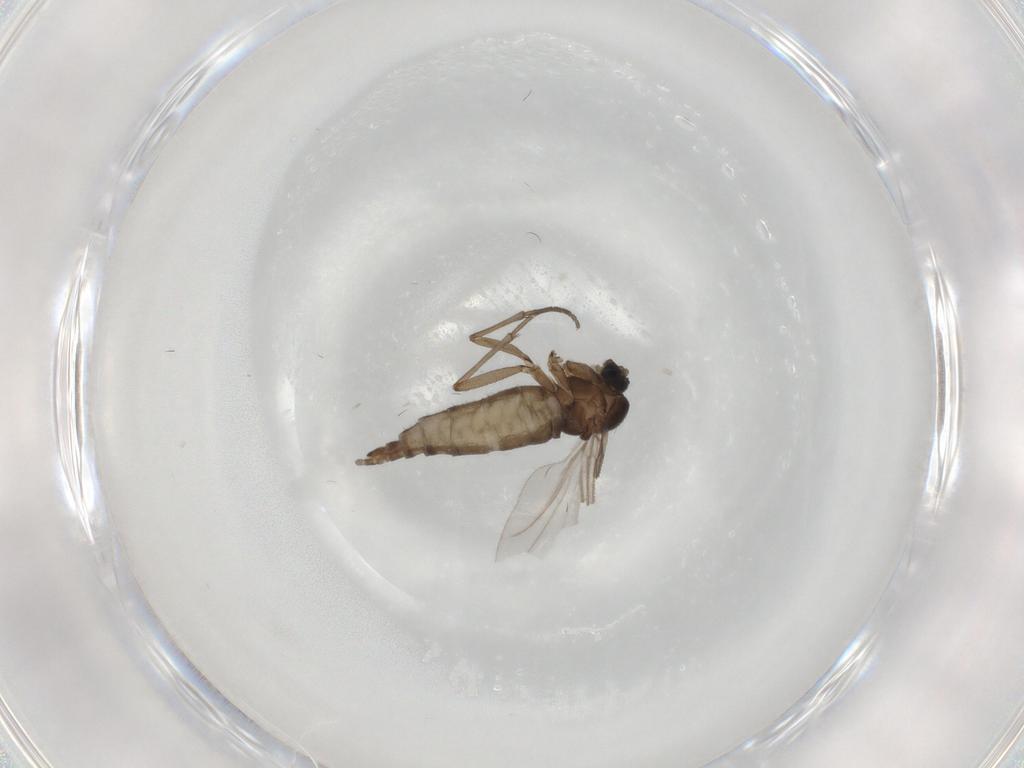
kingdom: Animalia
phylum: Arthropoda
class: Insecta
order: Diptera
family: Sciaridae
